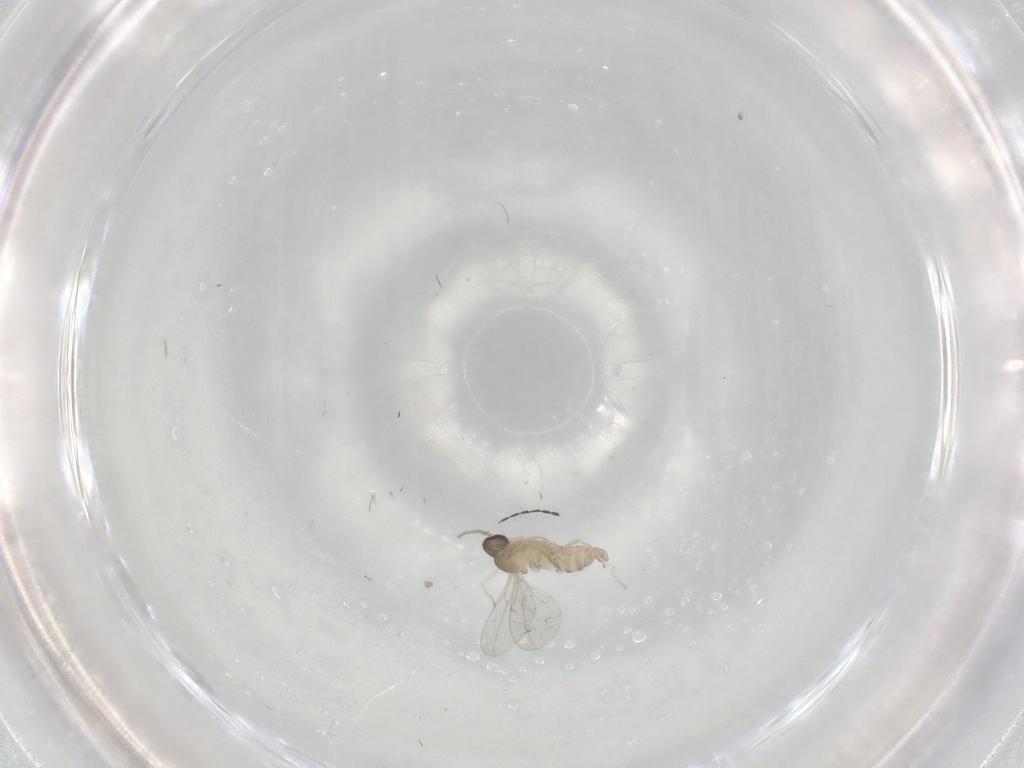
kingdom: Animalia
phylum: Arthropoda
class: Insecta
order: Diptera
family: Cecidomyiidae
